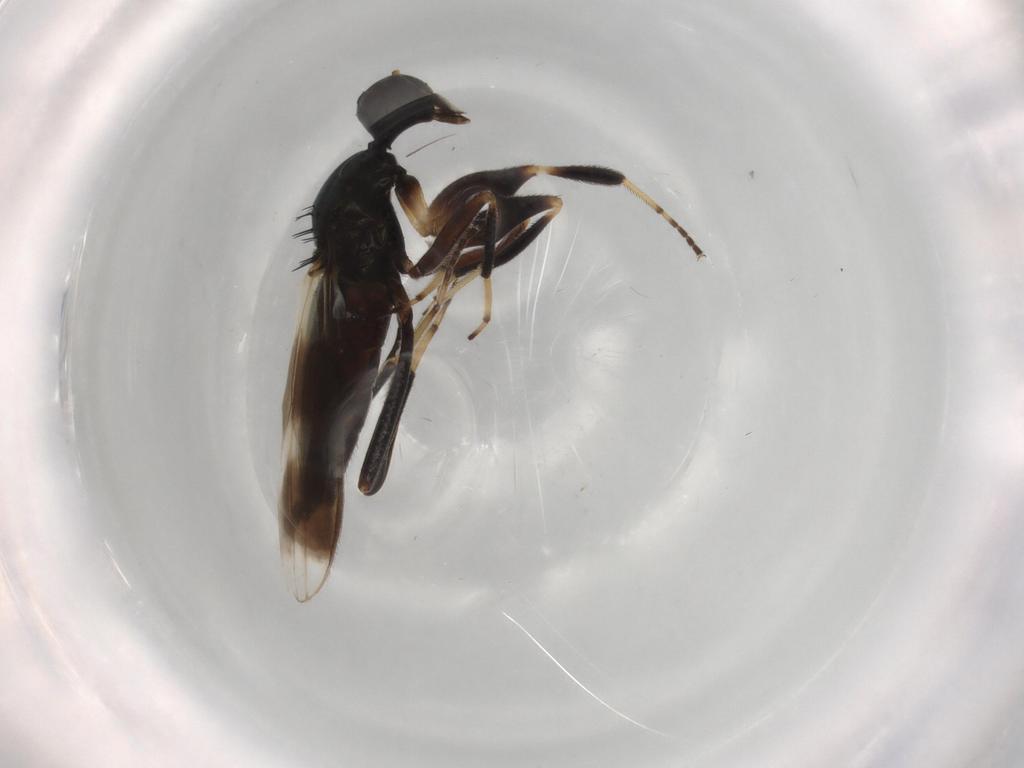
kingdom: Animalia
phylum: Arthropoda
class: Insecta
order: Diptera
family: Hybotidae
